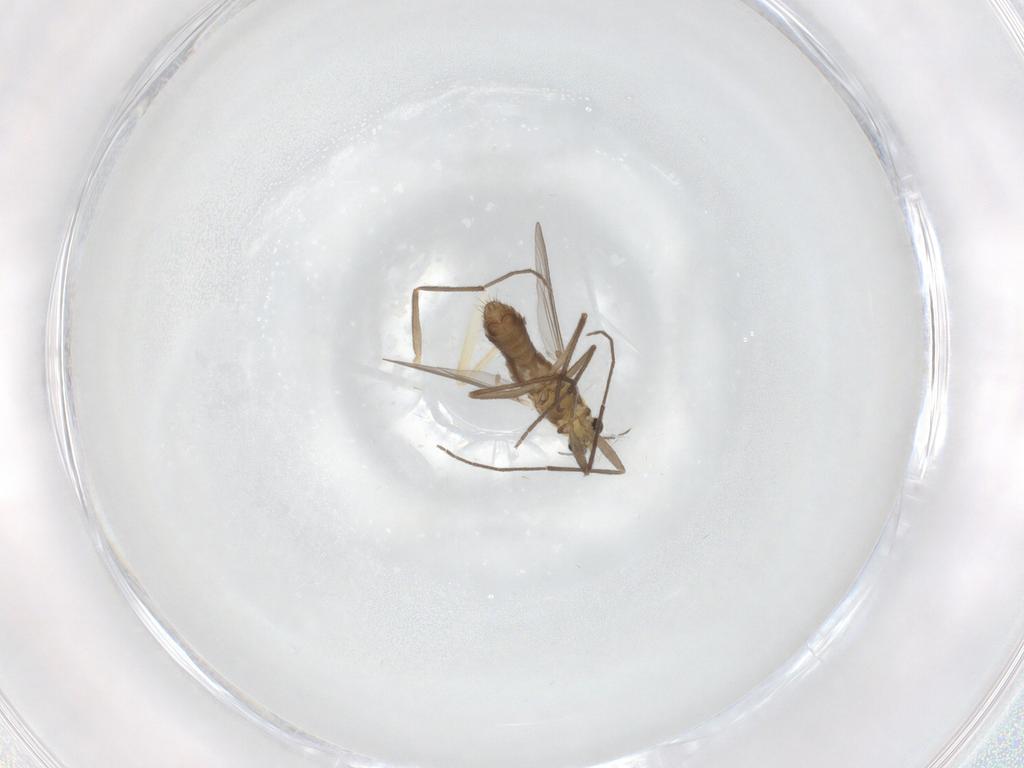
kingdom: Animalia
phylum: Arthropoda
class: Insecta
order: Diptera
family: Chironomidae
